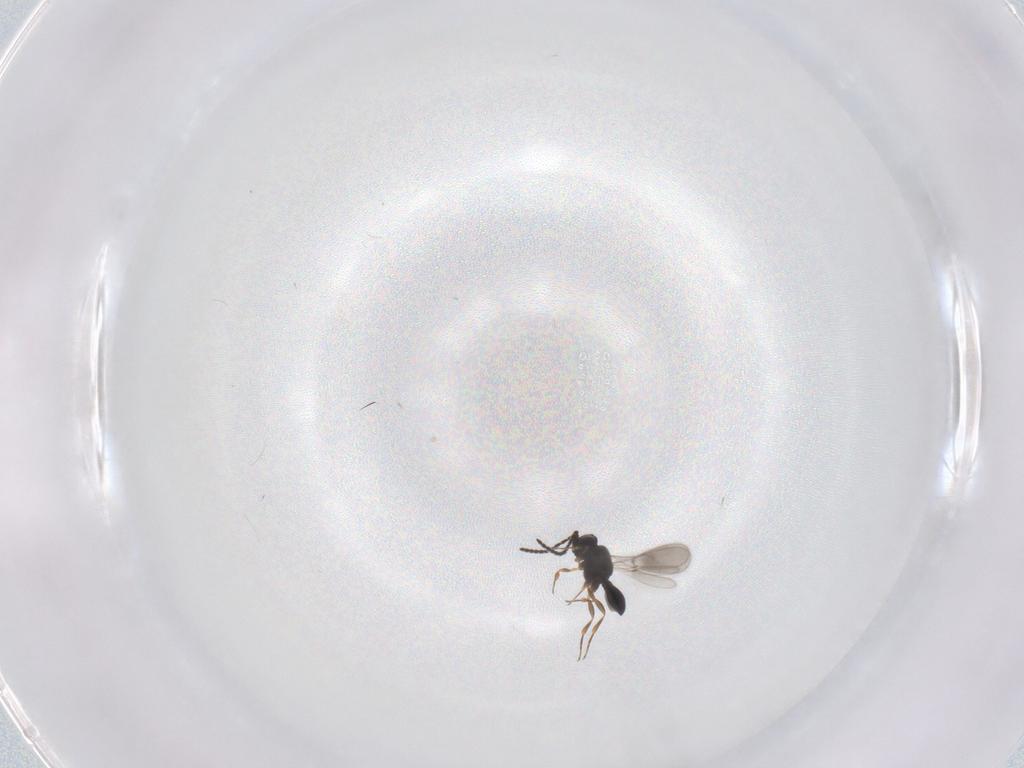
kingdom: Animalia
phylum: Arthropoda
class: Insecta
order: Hymenoptera
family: Scelionidae
